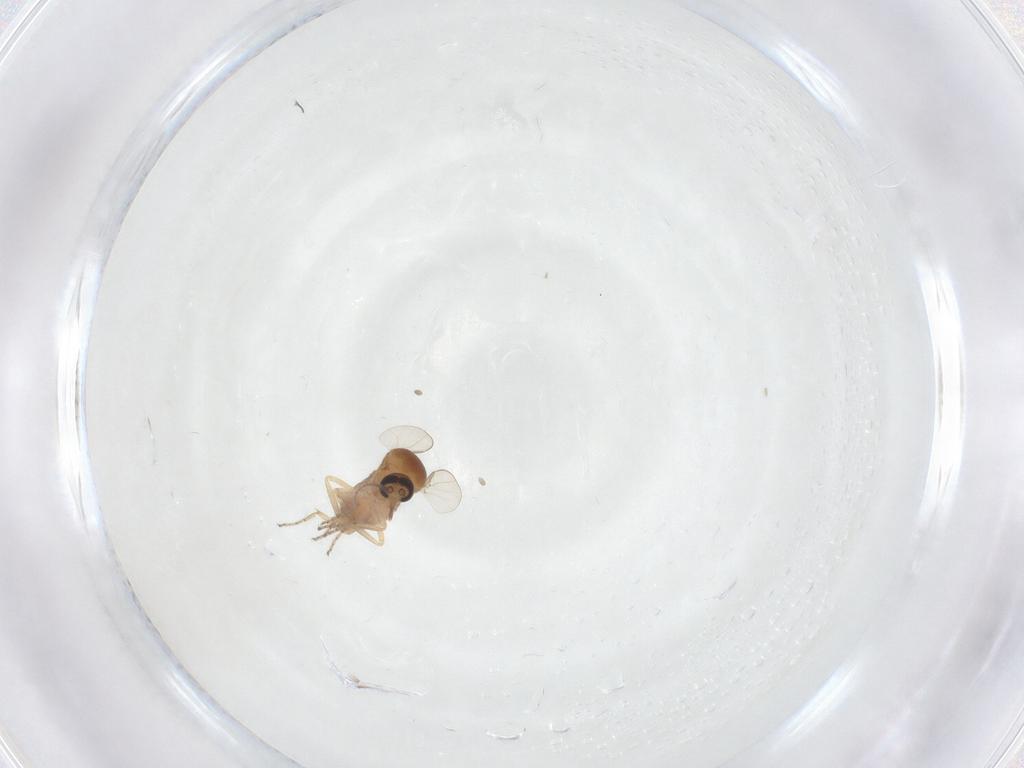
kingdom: Animalia
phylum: Arthropoda
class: Insecta
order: Diptera
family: Ceratopogonidae
